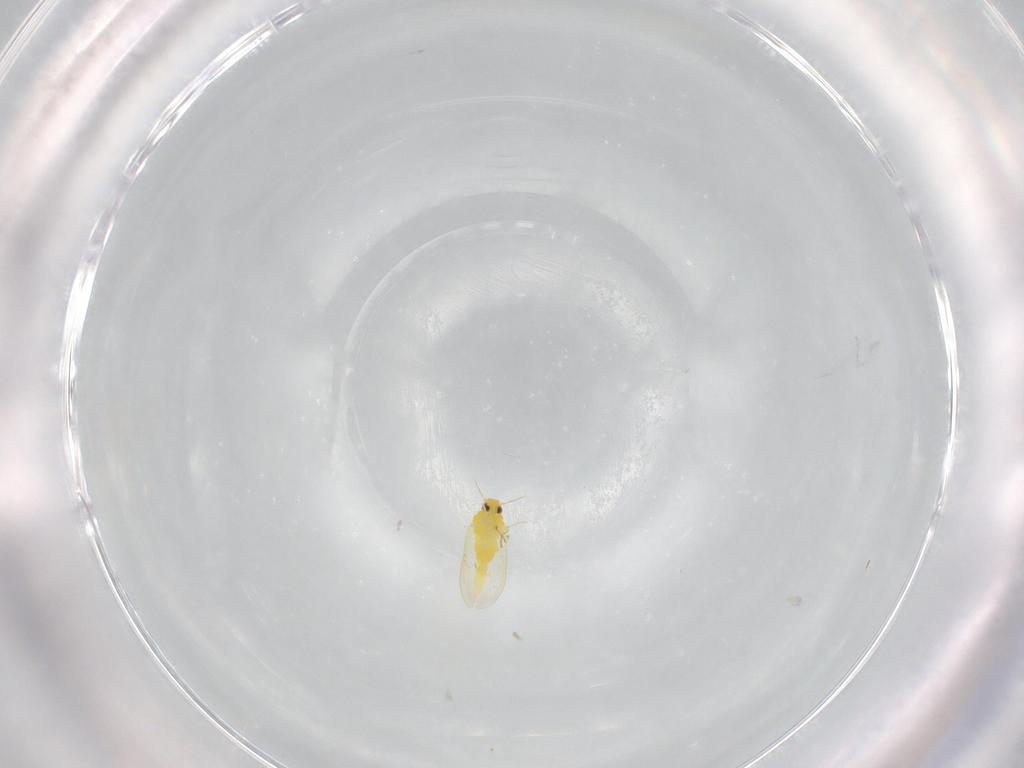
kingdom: Animalia
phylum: Arthropoda
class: Insecta
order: Hemiptera
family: Aleyrodidae
